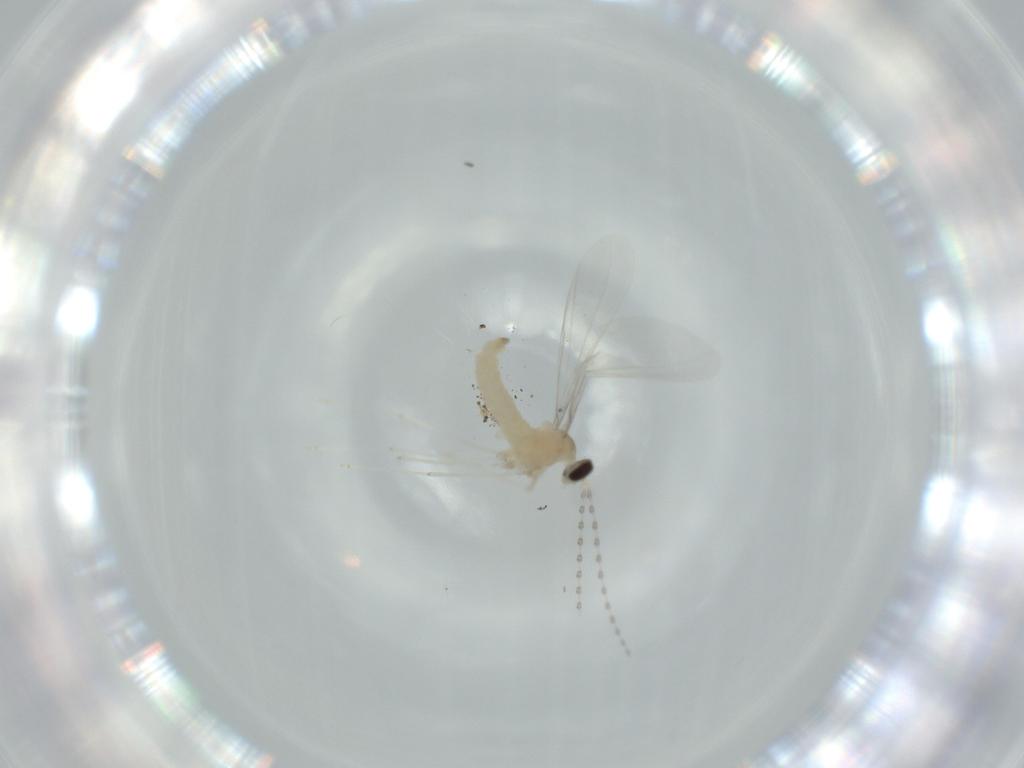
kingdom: Animalia
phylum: Arthropoda
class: Insecta
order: Diptera
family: Cecidomyiidae
